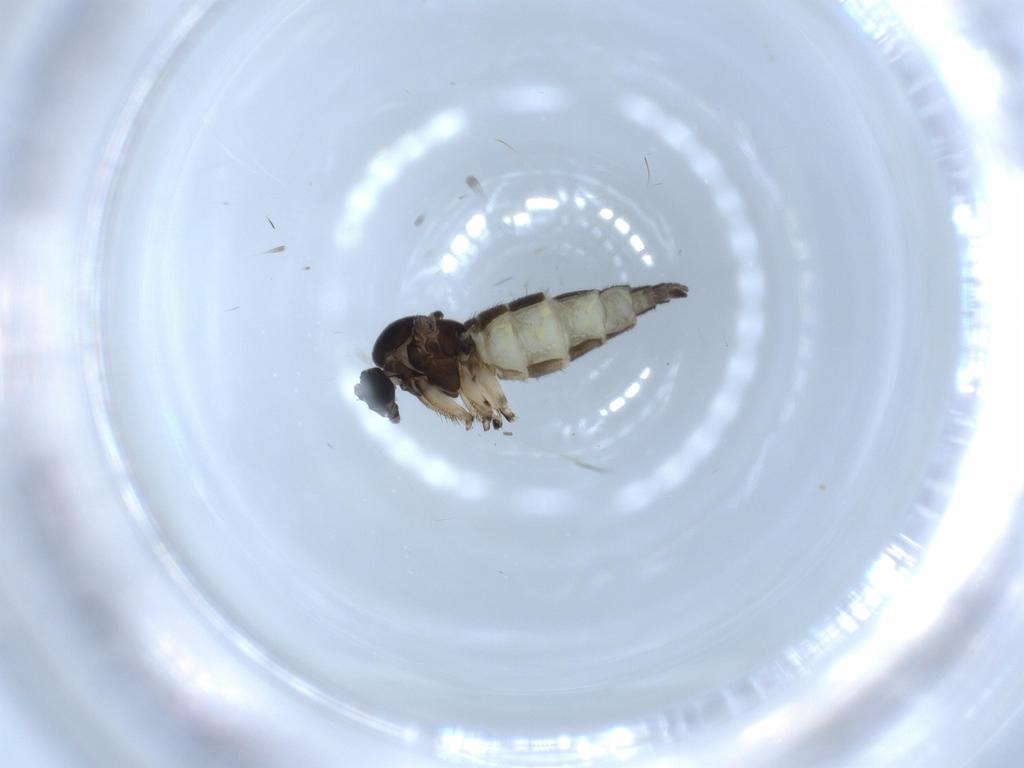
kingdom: Animalia
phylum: Arthropoda
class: Insecta
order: Diptera
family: Sciaridae
